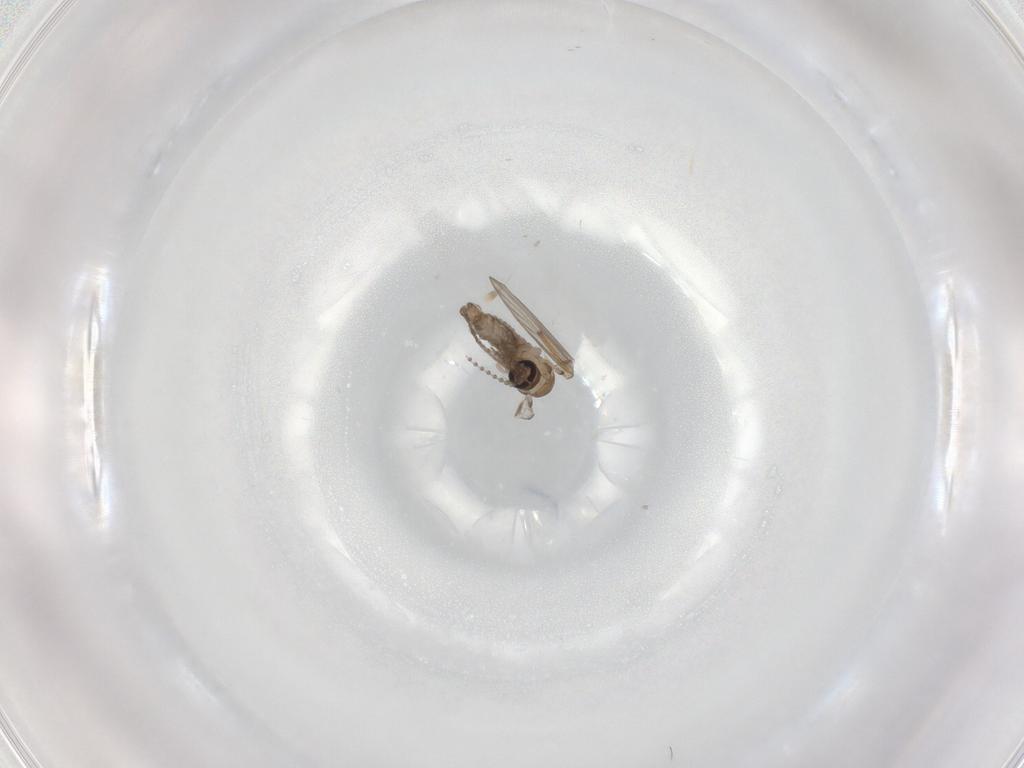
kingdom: Animalia
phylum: Arthropoda
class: Insecta
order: Diptera
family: Psychodidae
